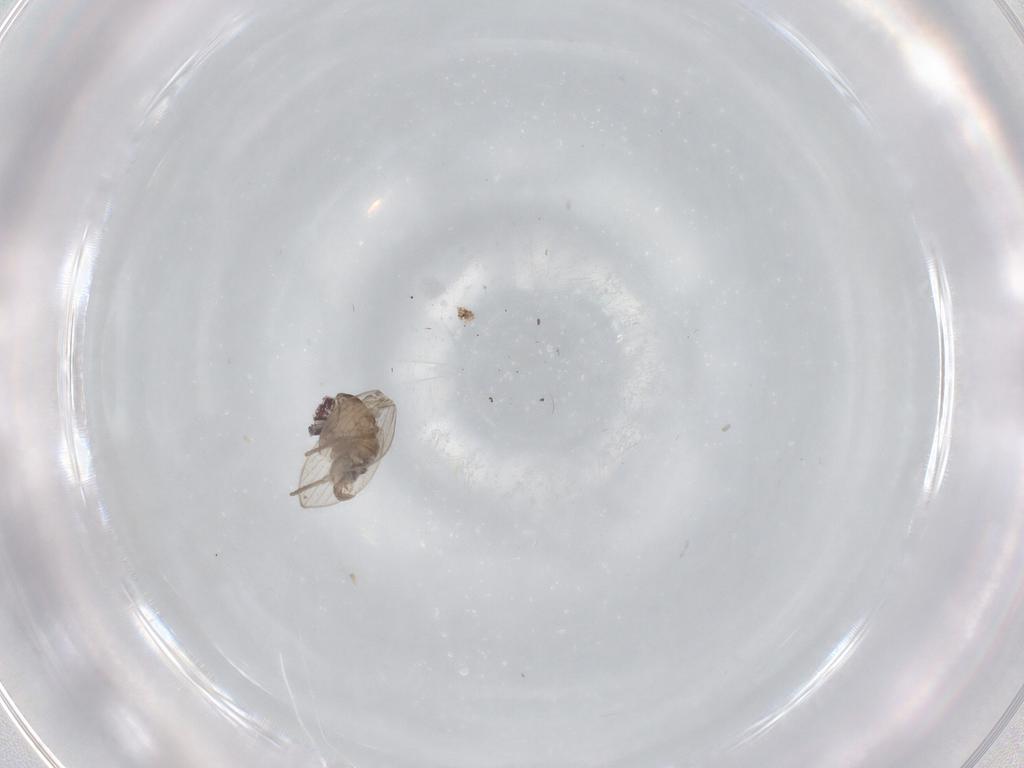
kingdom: Animalia
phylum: Arthropoda
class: Insecta
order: Diptera
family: Psychodidae
